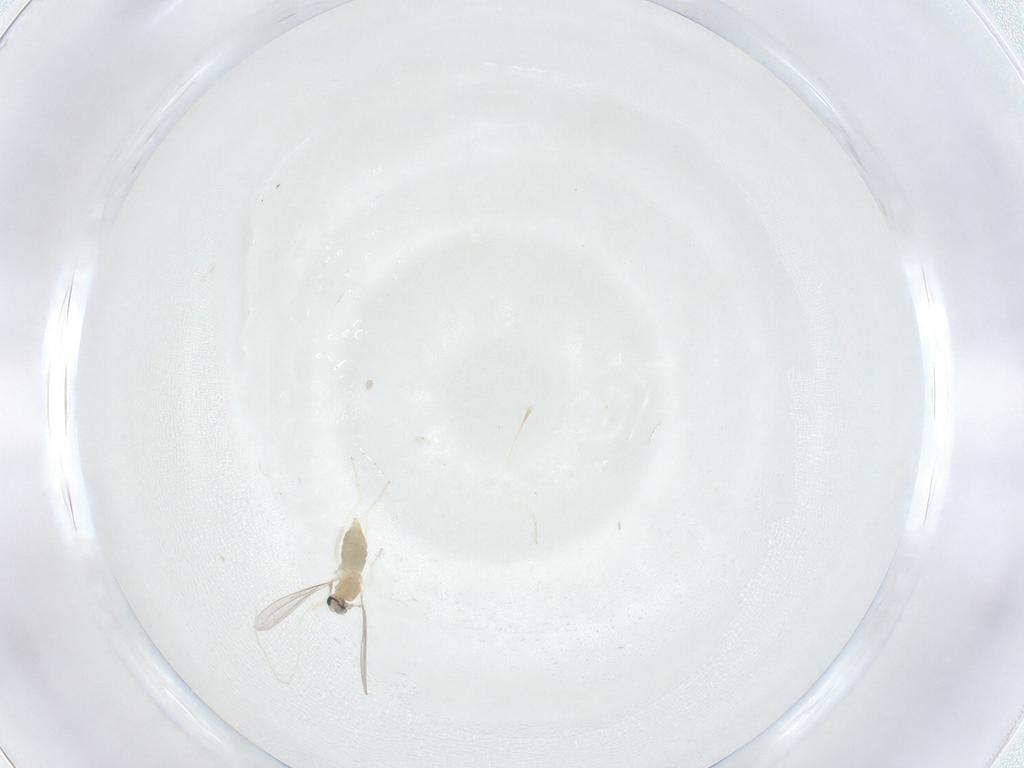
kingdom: Animalia
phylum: Arthropoda
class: Insecta
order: Diptera
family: Cecidomyiidae
